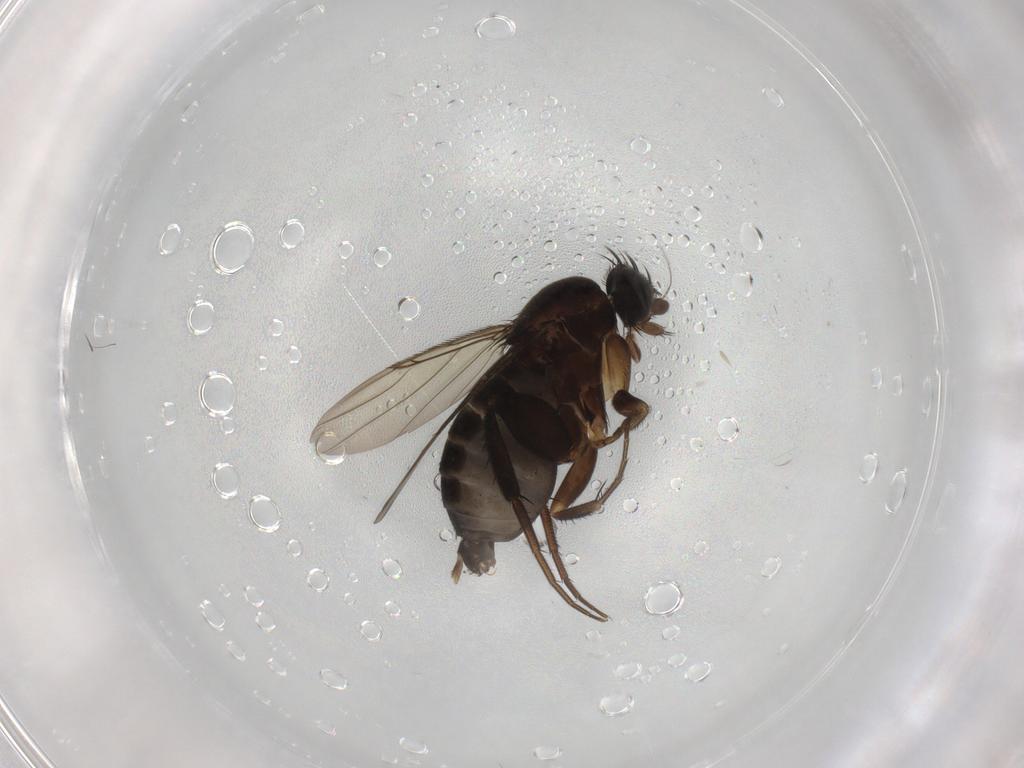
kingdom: Animalia
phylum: Arthropoda
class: Insecta
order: Diptera
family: Phoridae
